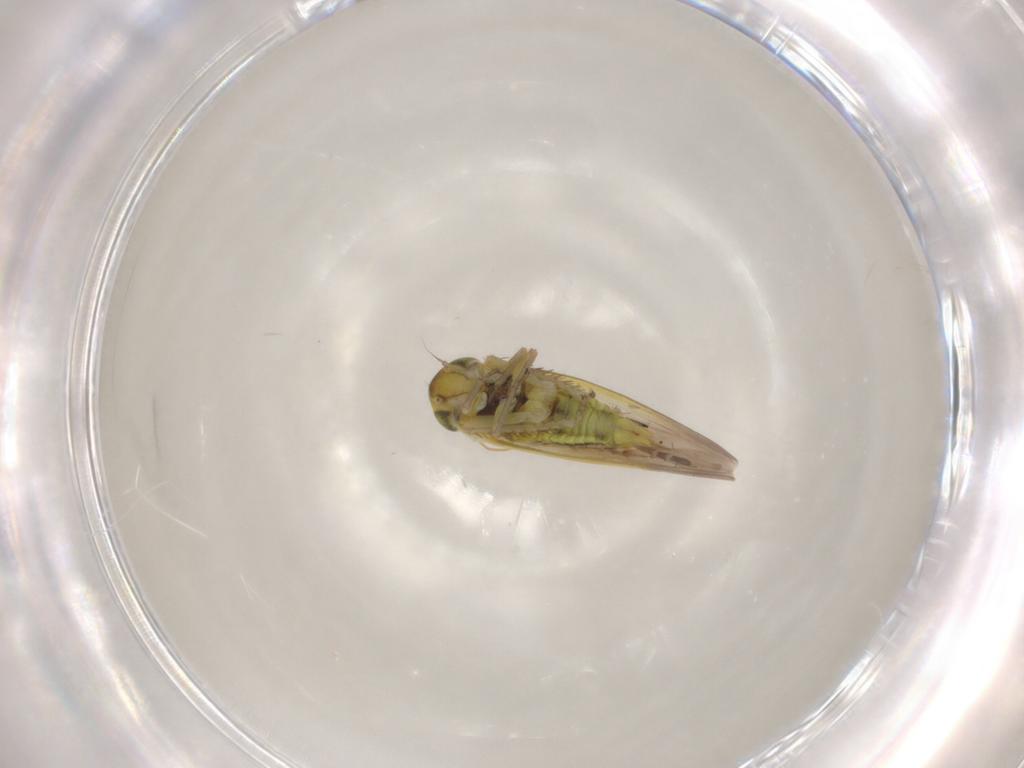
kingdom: Animalia
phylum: Arthropoda
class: Insecta
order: Hemiptera
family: Cicadellidae
